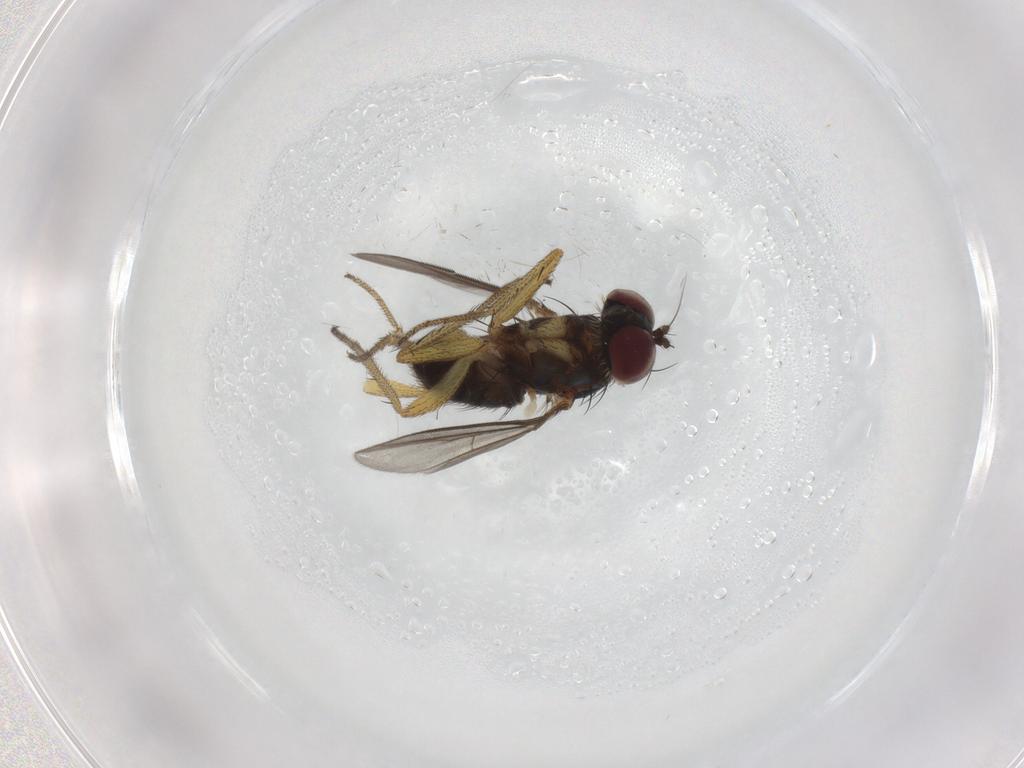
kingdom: Animalia
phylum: Arthropoda
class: Insecta
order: Diptera
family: Dolichopodidae
